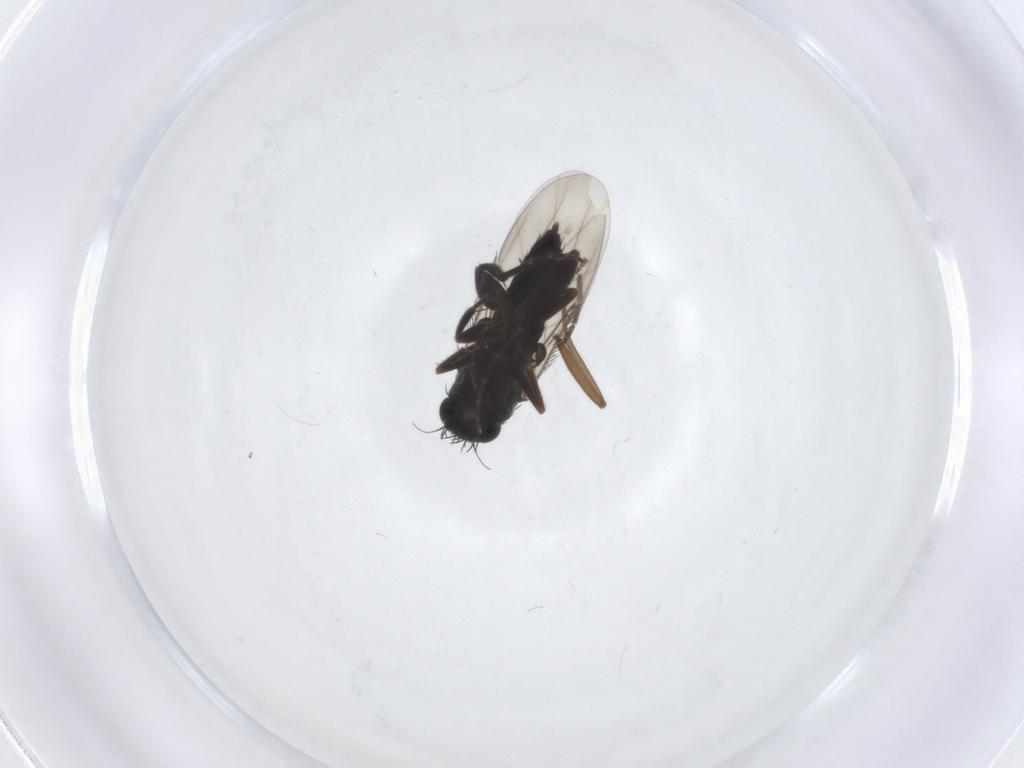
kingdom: Animalia
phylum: Arthropoda
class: Insecta
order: Diptera
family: Phoridae
